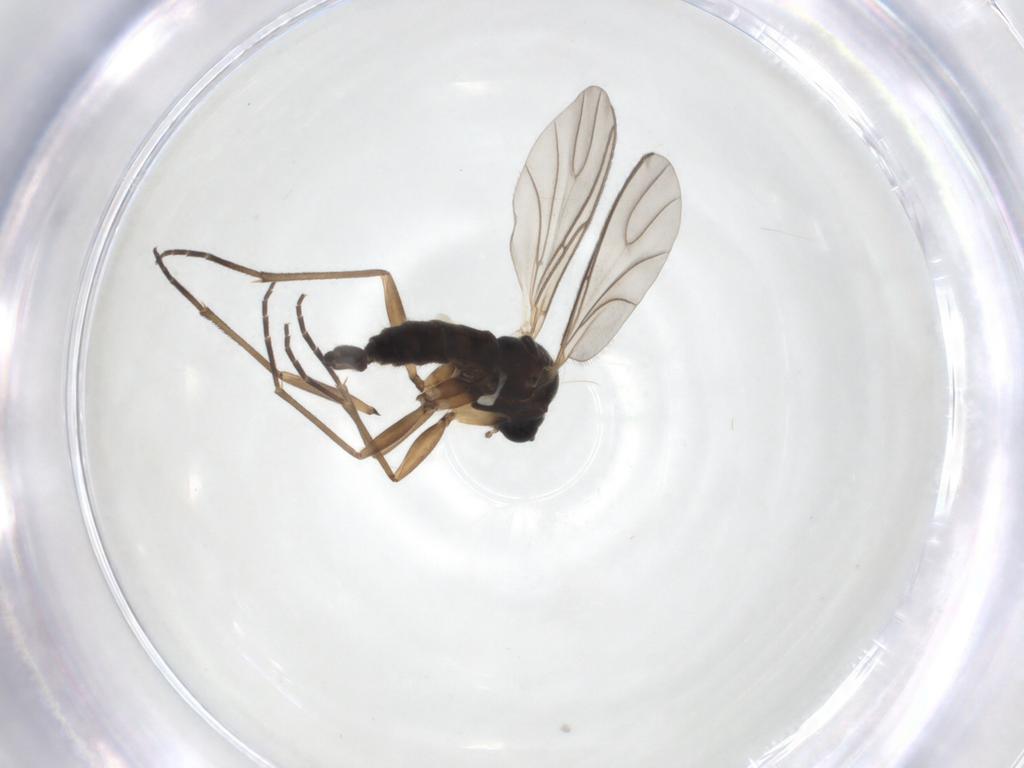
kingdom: Animalia
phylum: Arthropoda
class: Insecta
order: Diptera
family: Sciaridae
